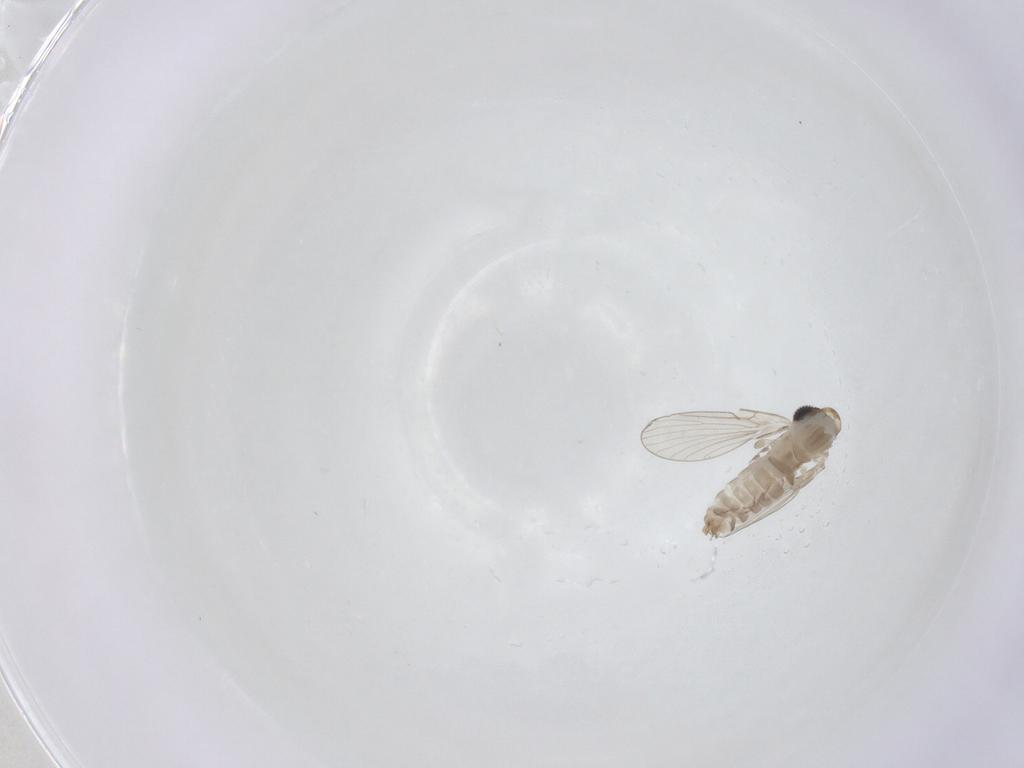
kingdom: Animalia
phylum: Arthropoda
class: Insecta
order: Diptera
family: Psychodidae
